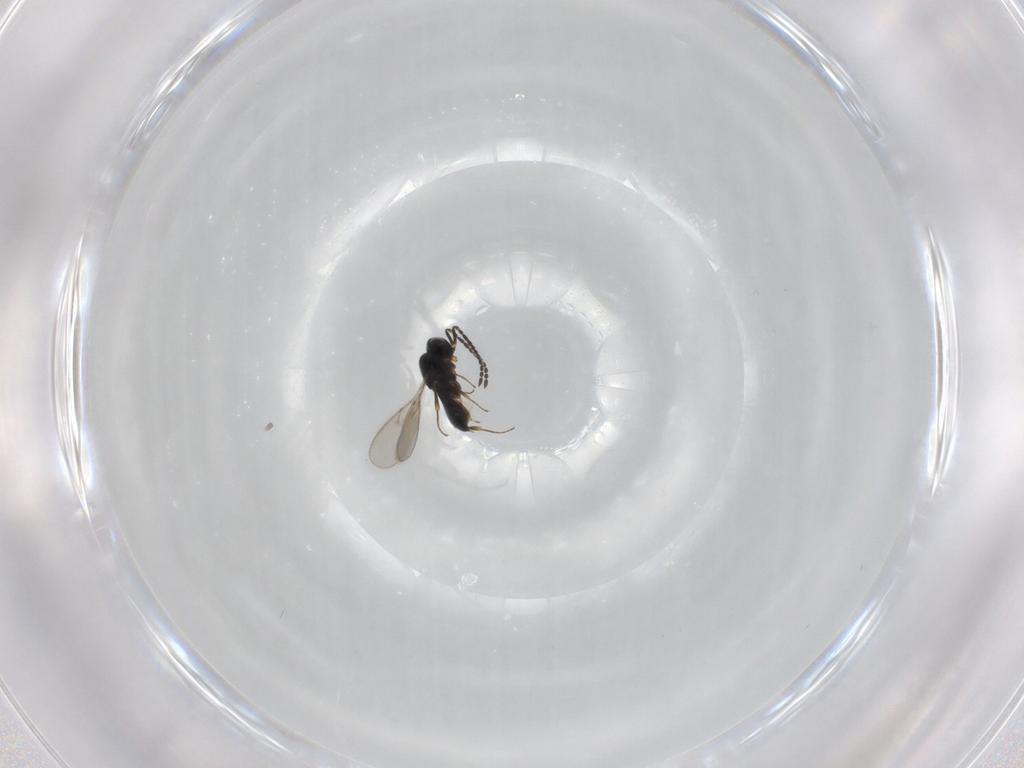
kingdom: Animalia
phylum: Arthropoda
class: Insecta
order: Hymenoptera
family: Scelionidae
